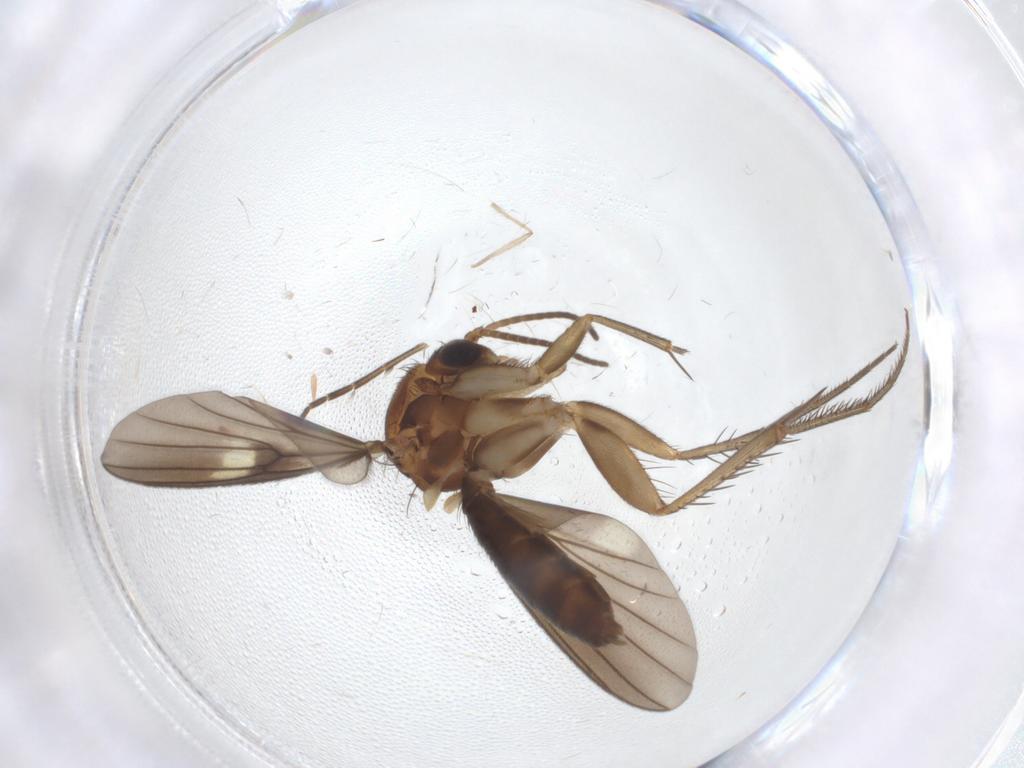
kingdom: Animalia
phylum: Arthropoda
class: Insecta
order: Diptera
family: Mycetophilidae
